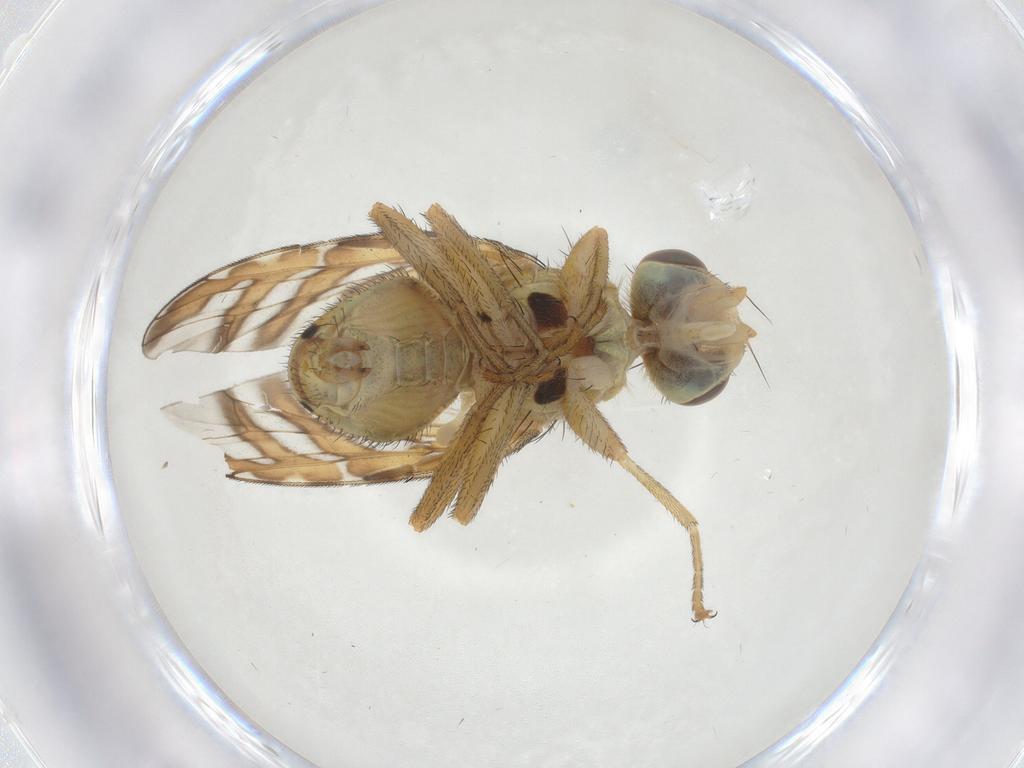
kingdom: Animalia
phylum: Arthropoda
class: Insecta
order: Diptera
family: Tephritidae
